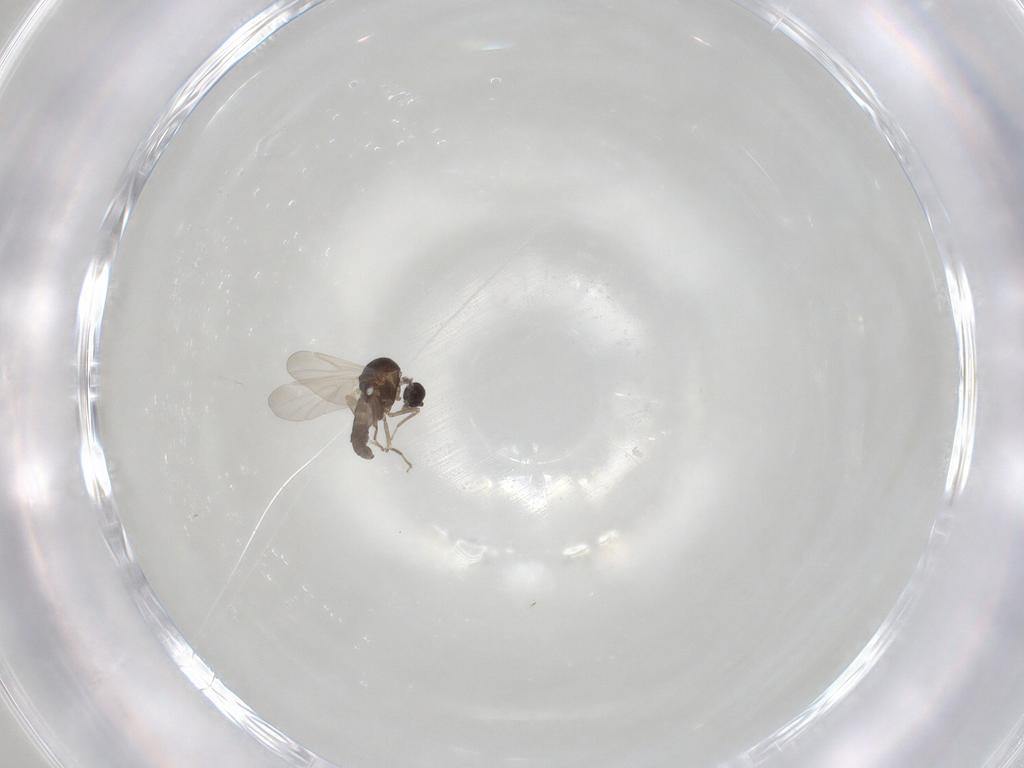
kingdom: Animalia
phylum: Arthropoda
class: Insecta
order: Diptera
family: Ceratopogonidae
